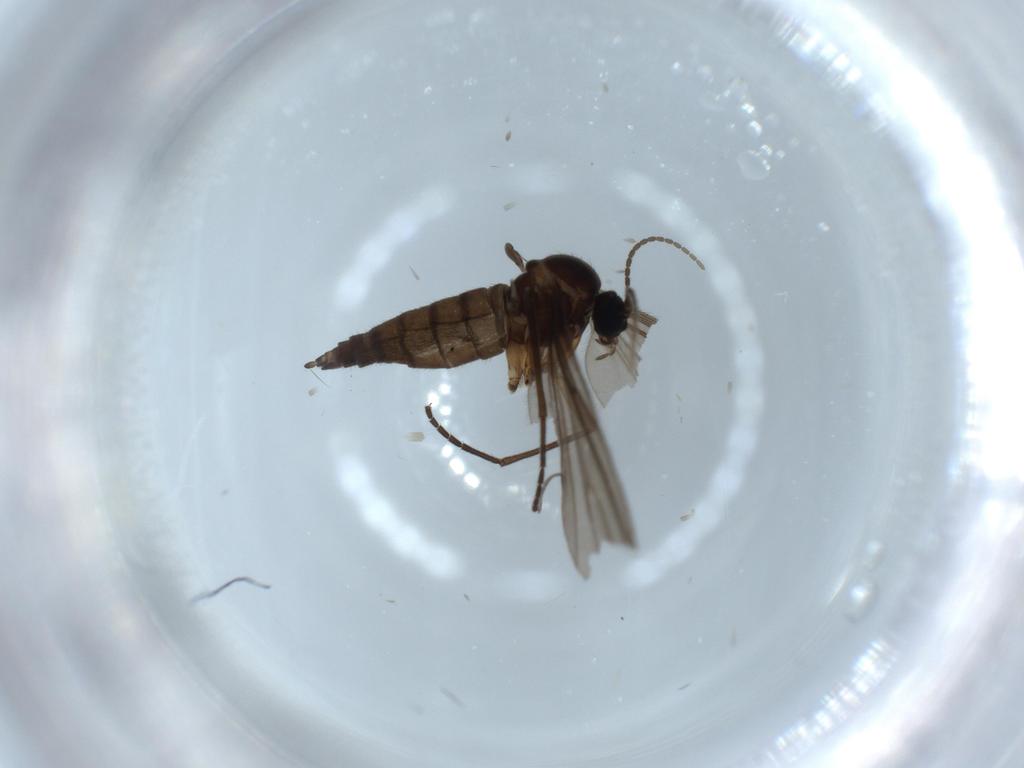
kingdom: Animalia
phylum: Arthropoda
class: Insecta
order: Diptera
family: Sciaridae
